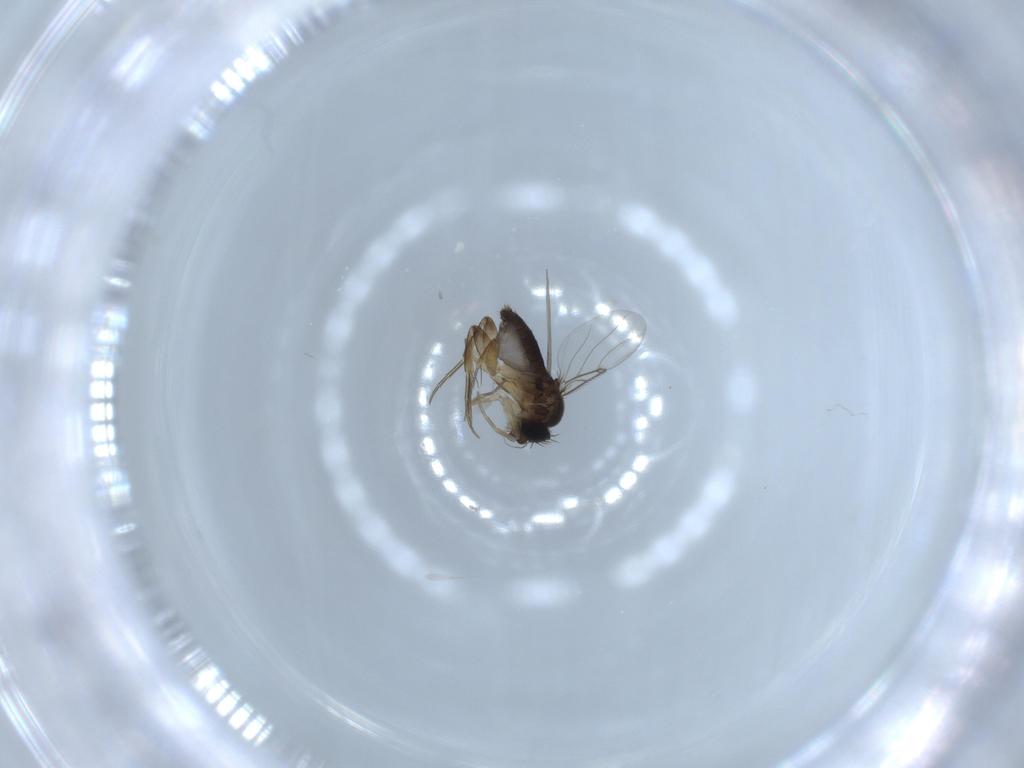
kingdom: Animalia
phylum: Arthropoda
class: Insecta
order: Diptera
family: Phoridae
